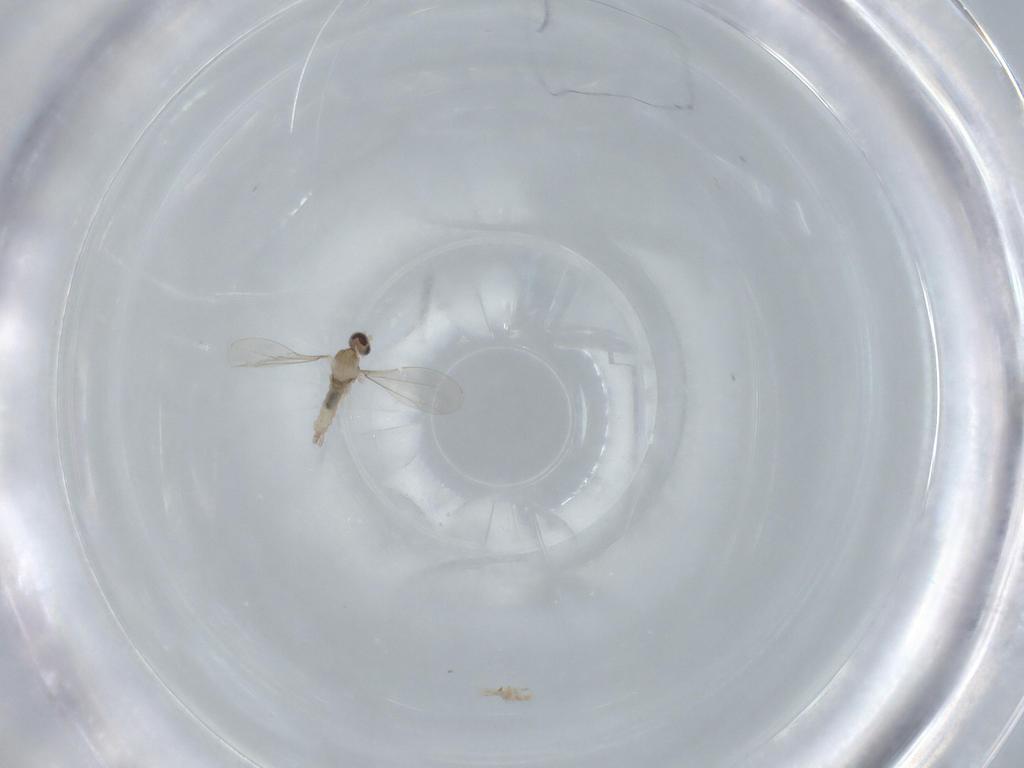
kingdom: Animalia
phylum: Arthropoda
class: Insecta
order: Diptera
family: Cecidomyiidae
